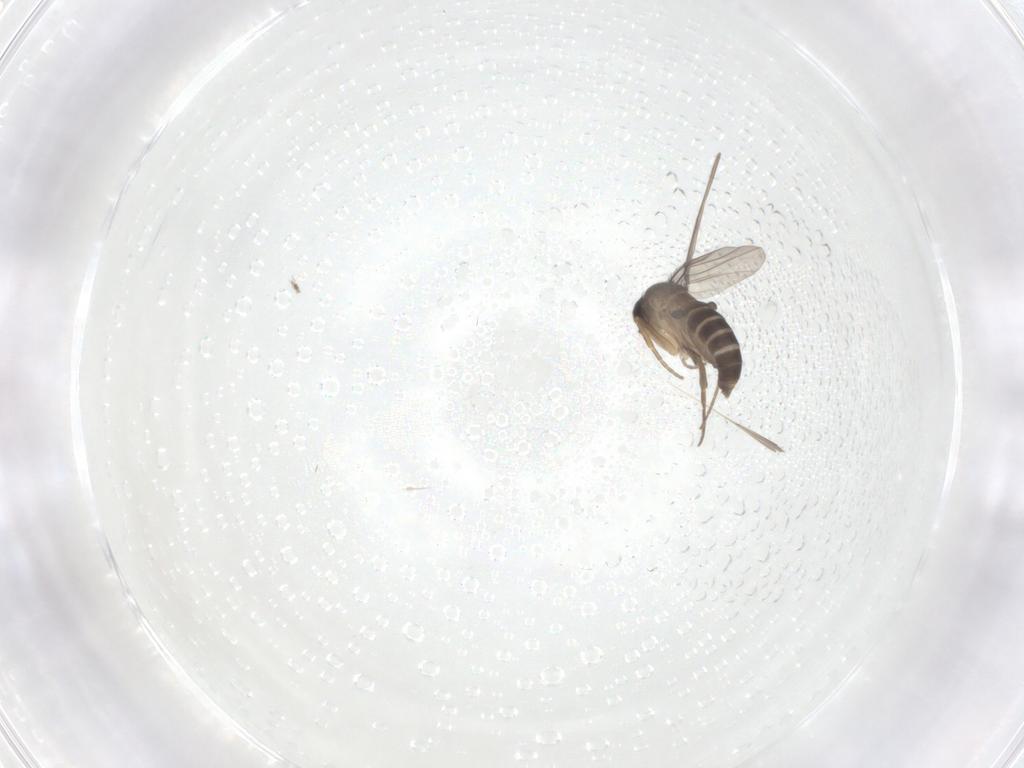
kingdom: Animalia
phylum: Arthropoda
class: Insecta
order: Diptera
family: Cecidomyiidae
